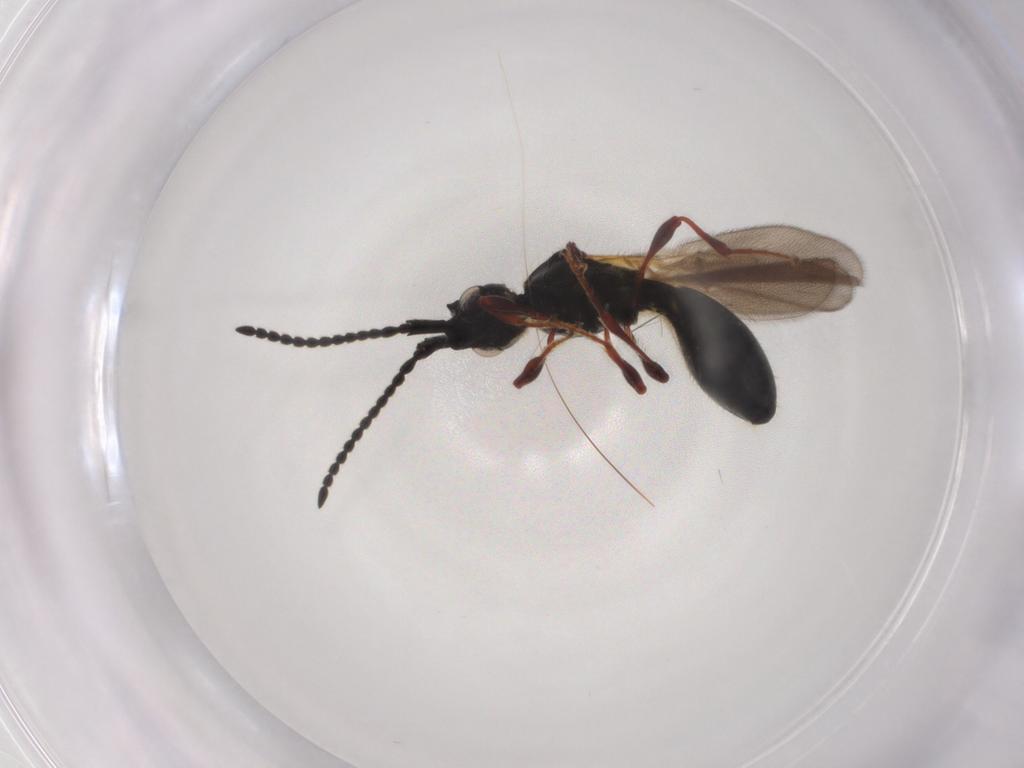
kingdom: Animalia
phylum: Arthropoda
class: Insecta
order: Hymenoptera
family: Diapriidae
